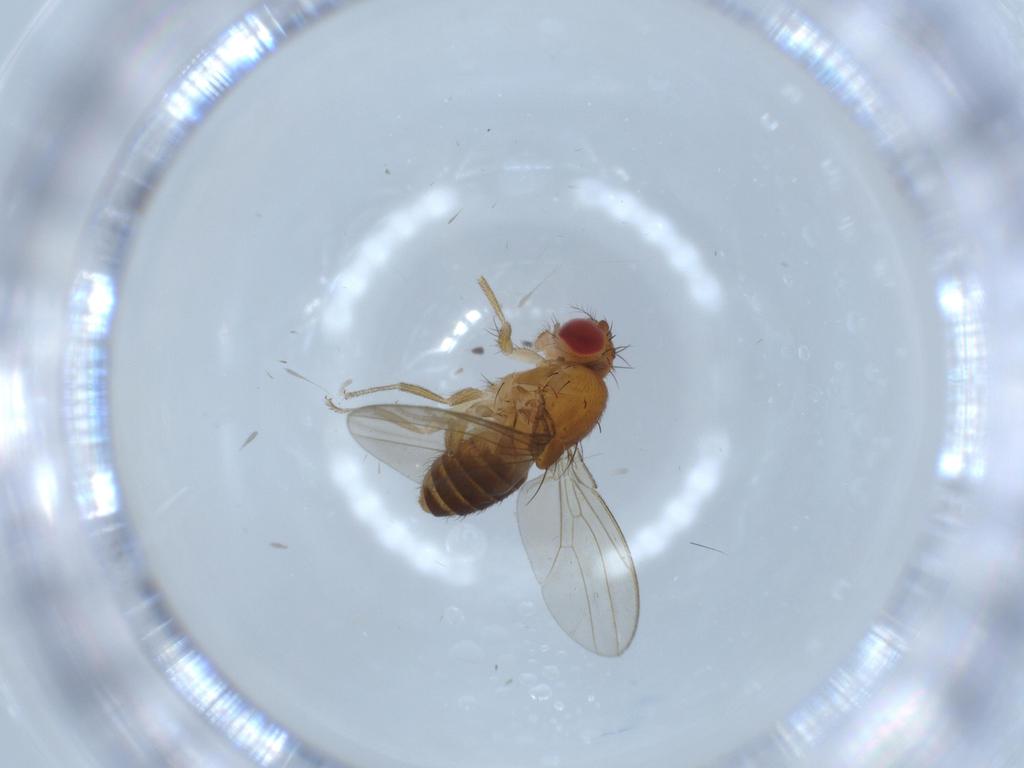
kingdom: Animalia
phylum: Arthropoda
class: Insecta
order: Diptera
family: Drosophilidae
